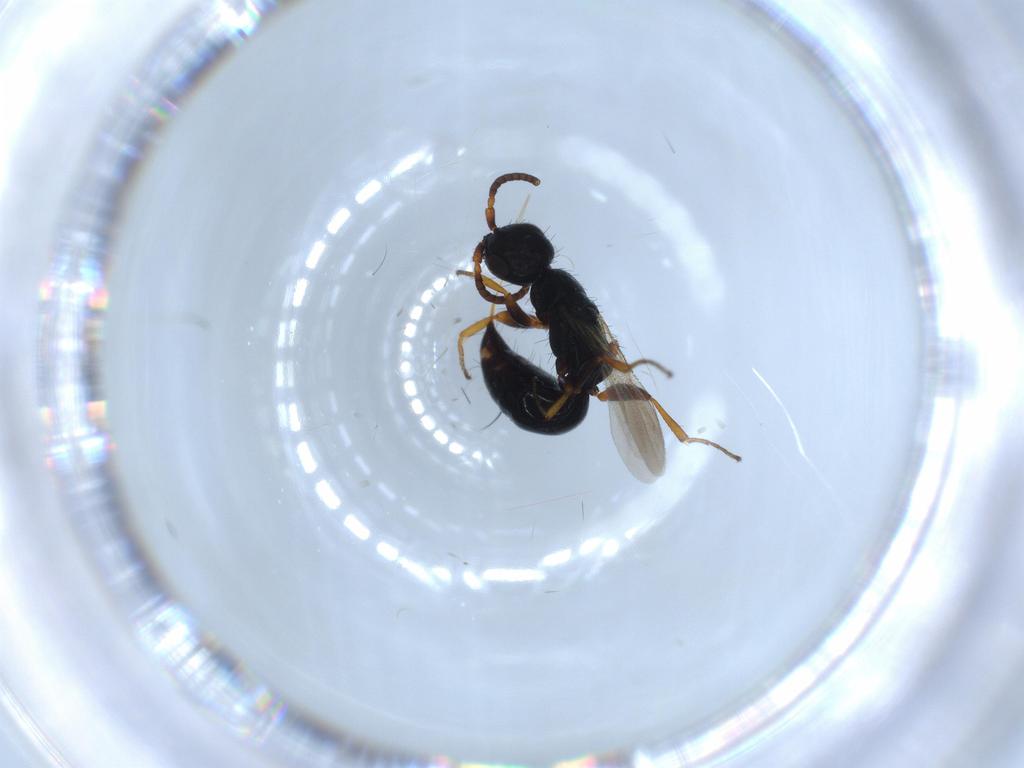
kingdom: Animalia
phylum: Arthropoda
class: Insecta
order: Hymenoptera
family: Bethylidae
